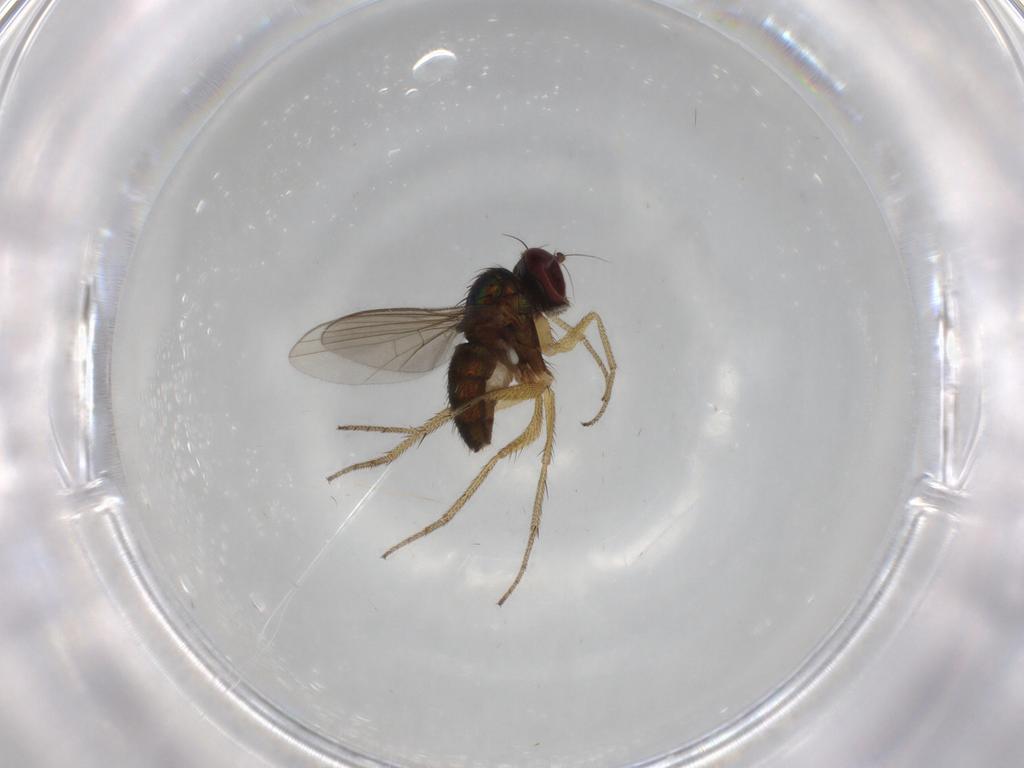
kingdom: Animalia
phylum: Arthropoda
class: Insecta
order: Diptera
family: Dolichopodidae
